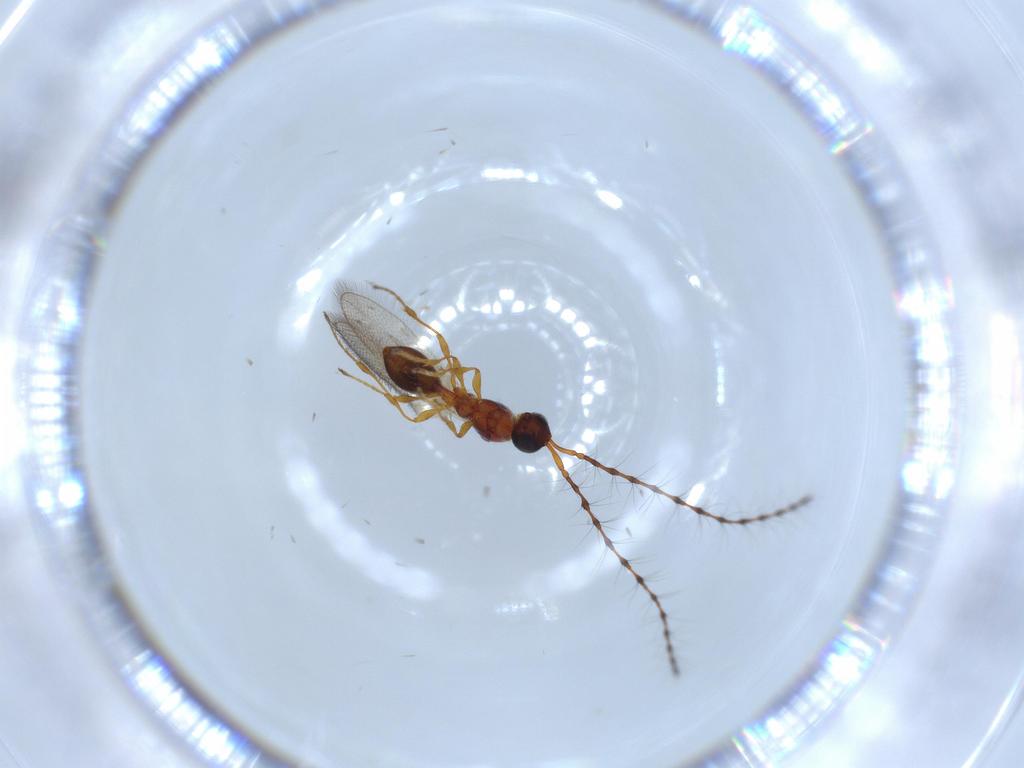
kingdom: Animalia
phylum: Arthropoda
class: Insecta
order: Hymenoptera
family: Diapriidae
